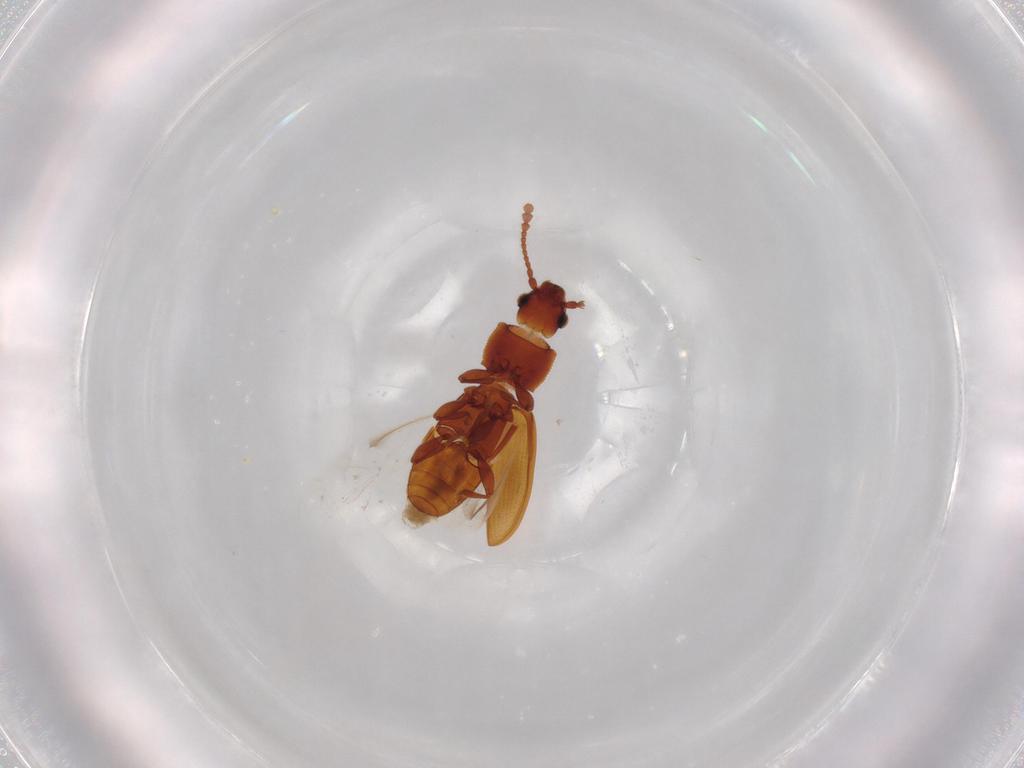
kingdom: Animalia
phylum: Arthropoda
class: Insecta
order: Coleoptera
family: Silvanidae
